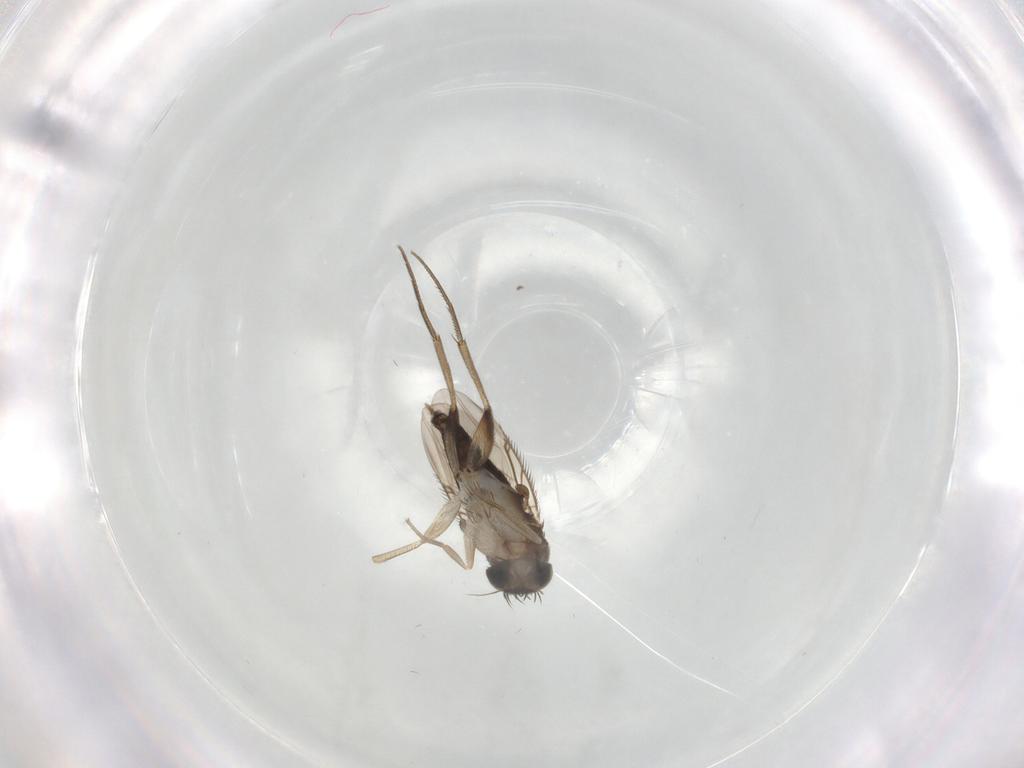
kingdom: Animalia
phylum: Arthropoda
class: Insecta
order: Diptera
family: Phoridae
